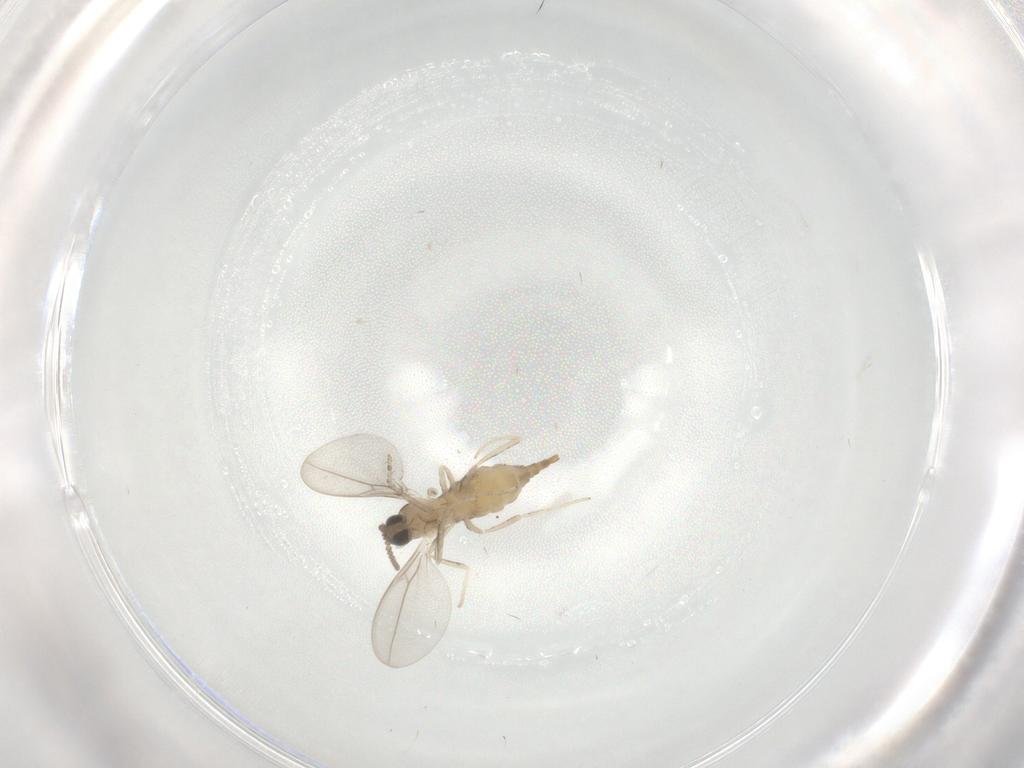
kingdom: Animalia
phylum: Arthropoda
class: Insecta
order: Diptera
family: Cecidomyiidae
